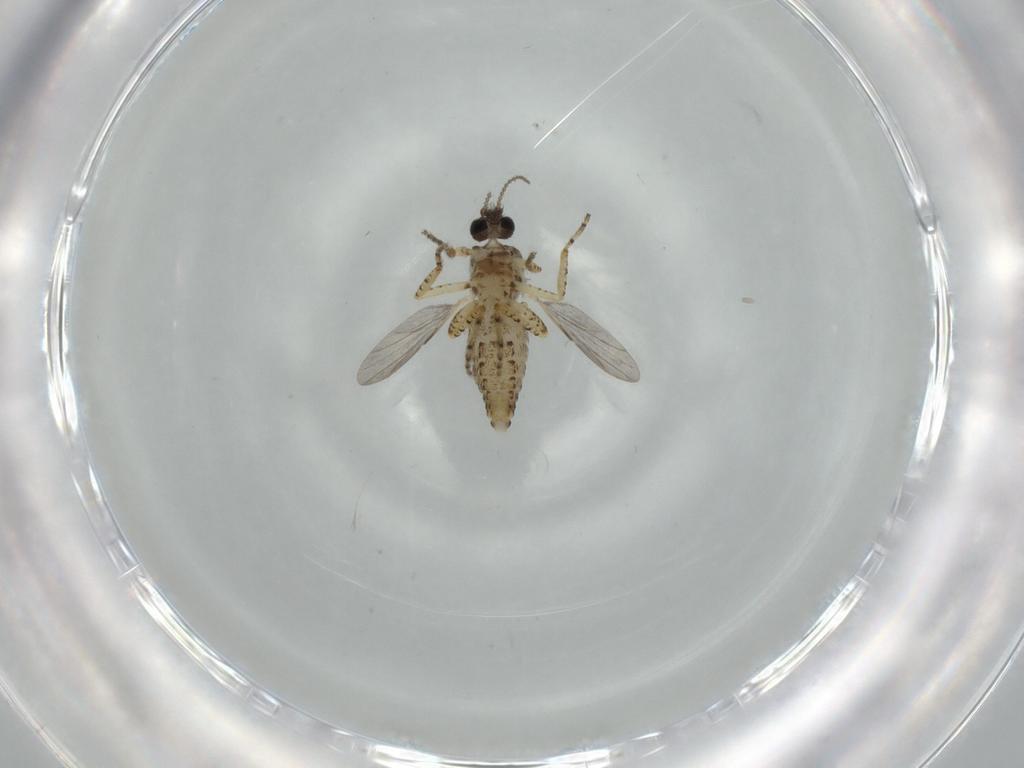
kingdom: Animalia
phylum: Arthropoda
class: Insecta
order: Diptera
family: Ceratopogonidae
